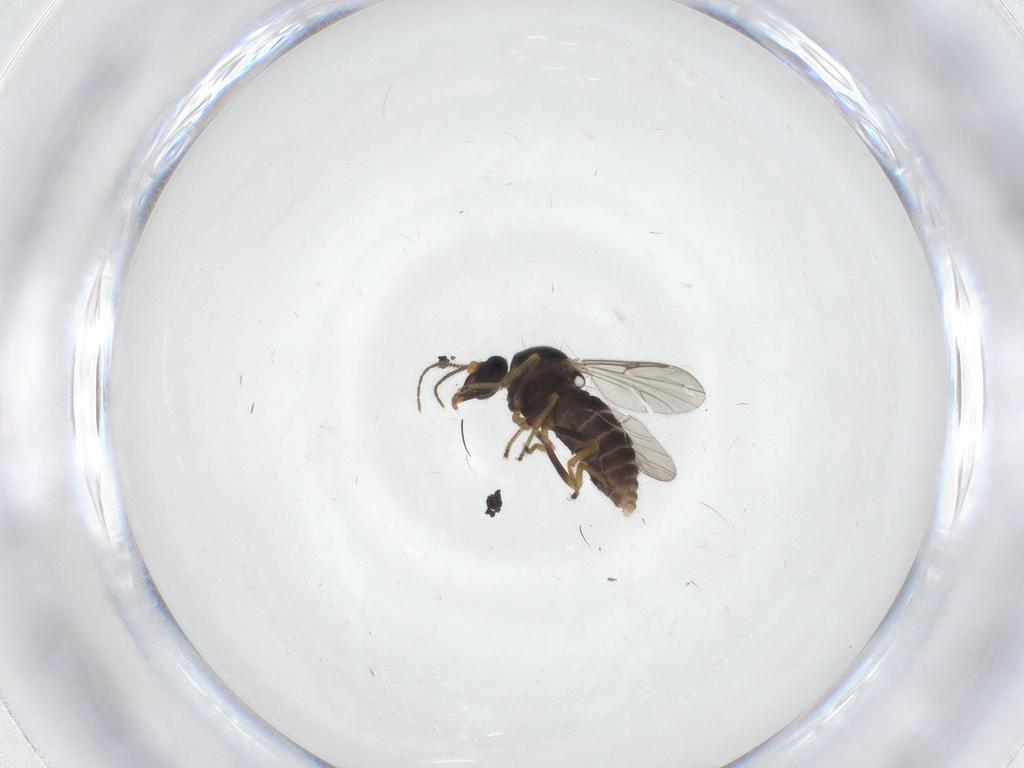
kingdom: Animalia
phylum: Arthropoda
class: Insecta
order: Diptera
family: Ceratopogonidae
